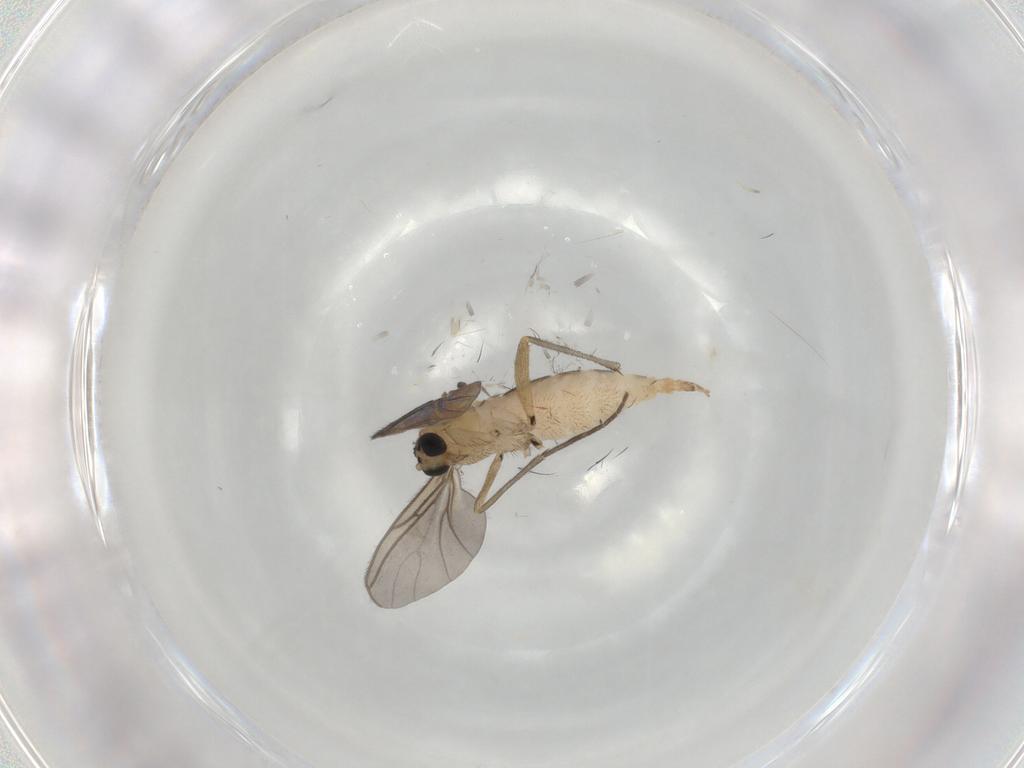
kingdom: Animalia
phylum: Arthropoda
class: Insecta
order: Diptera
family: Sciaridae
